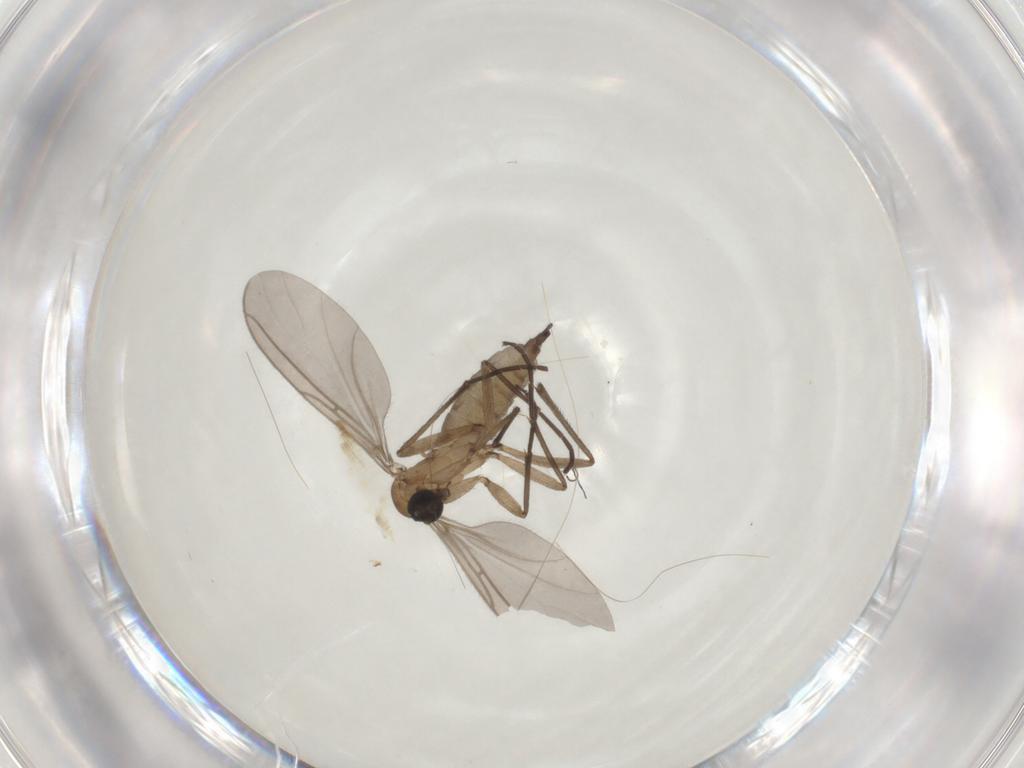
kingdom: Animalia
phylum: Arthropoda
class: Insecta
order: Diptera
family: Sciaridae
